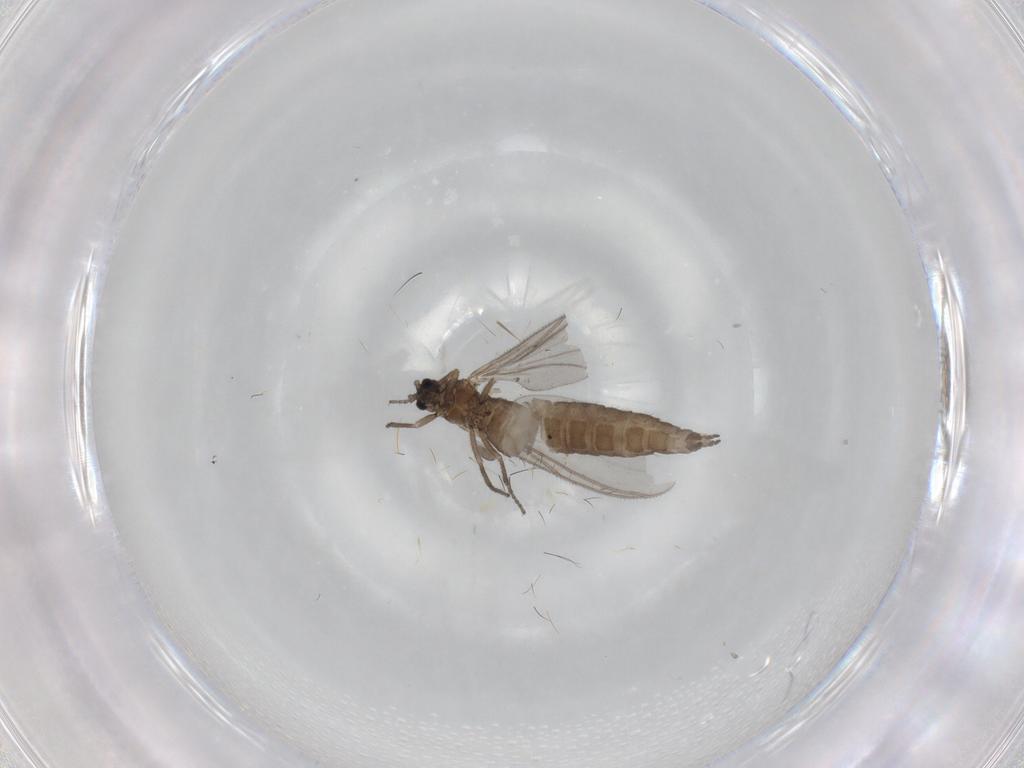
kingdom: Animalia
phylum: Arthropoda
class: Insecta
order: Diptera
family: Sciaridae
